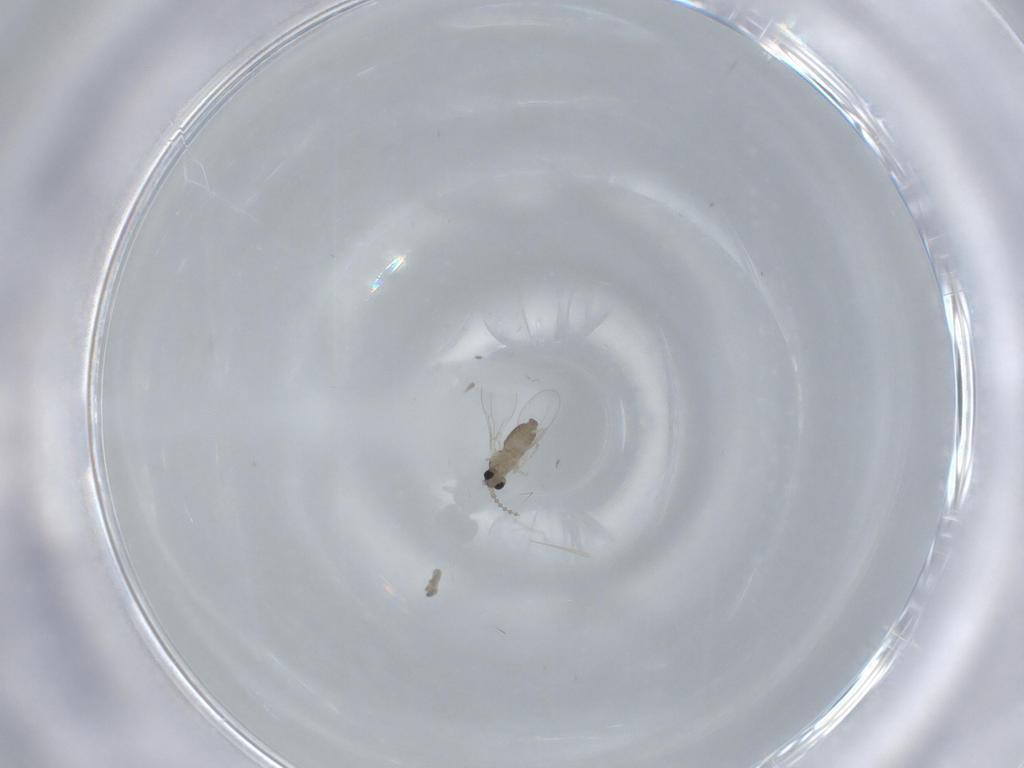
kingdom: Animalia
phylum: Arthropoda
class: Insecta
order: Diptera
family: Cecidomyiidae
